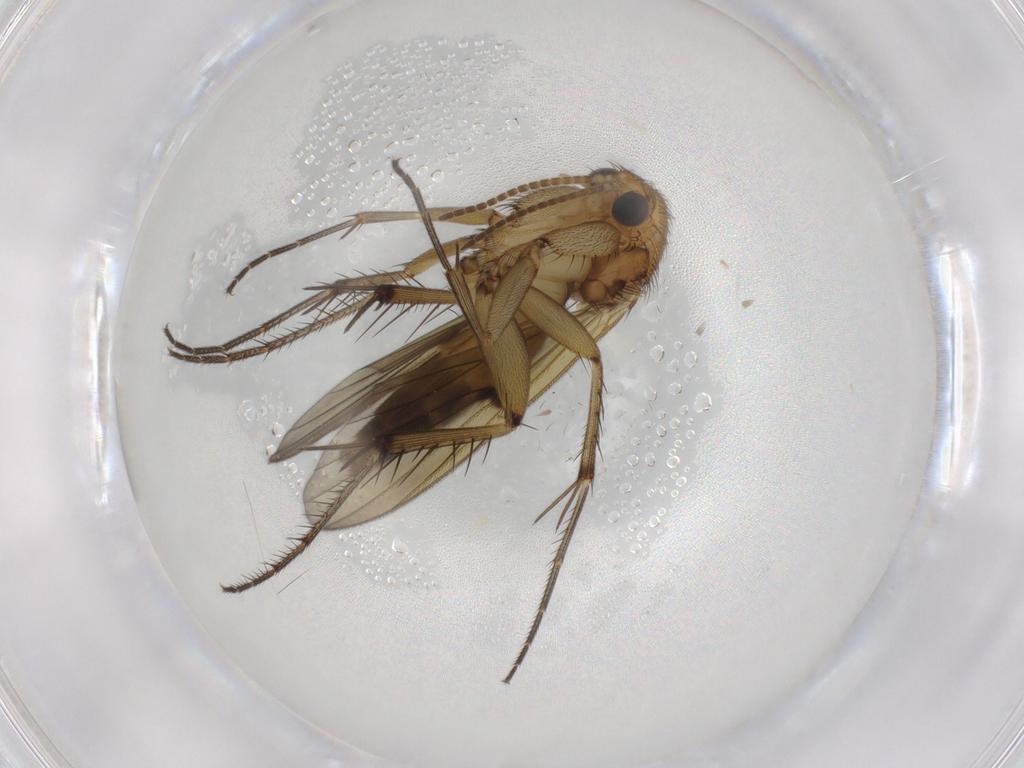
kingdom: Animalia
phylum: Arthropoda
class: Insecta
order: Diptera
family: Cecidomyiidae
